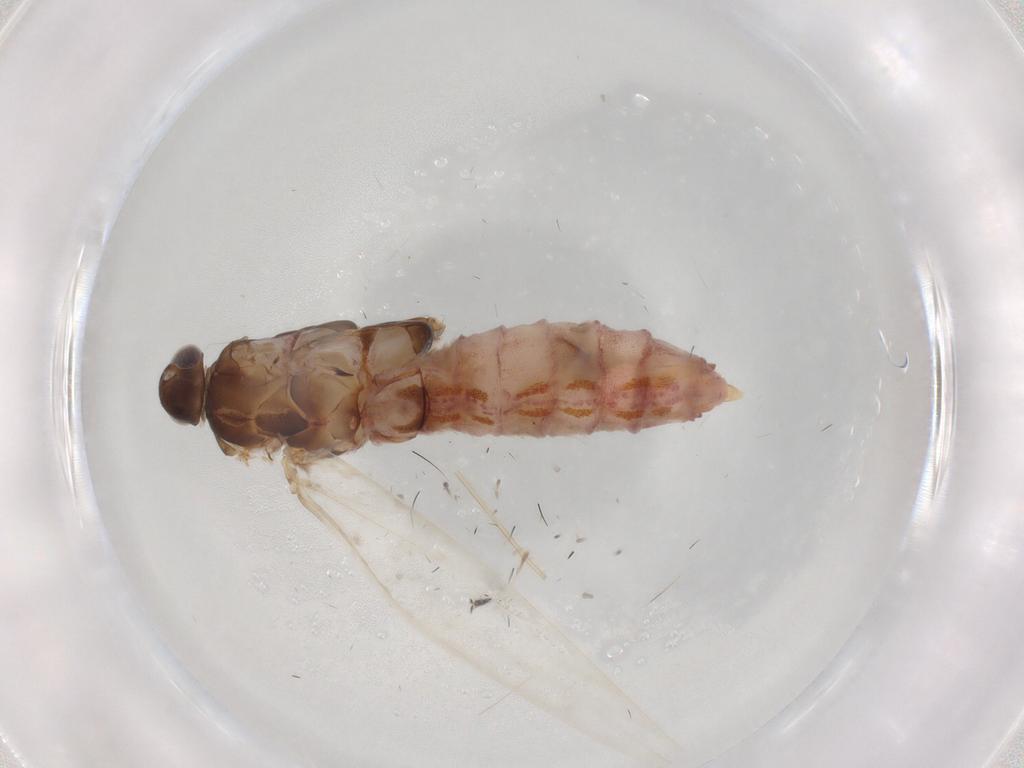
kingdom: Animalia
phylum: Arthropoda
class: Insecta
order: Lepidoptera
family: Coleophoridae
